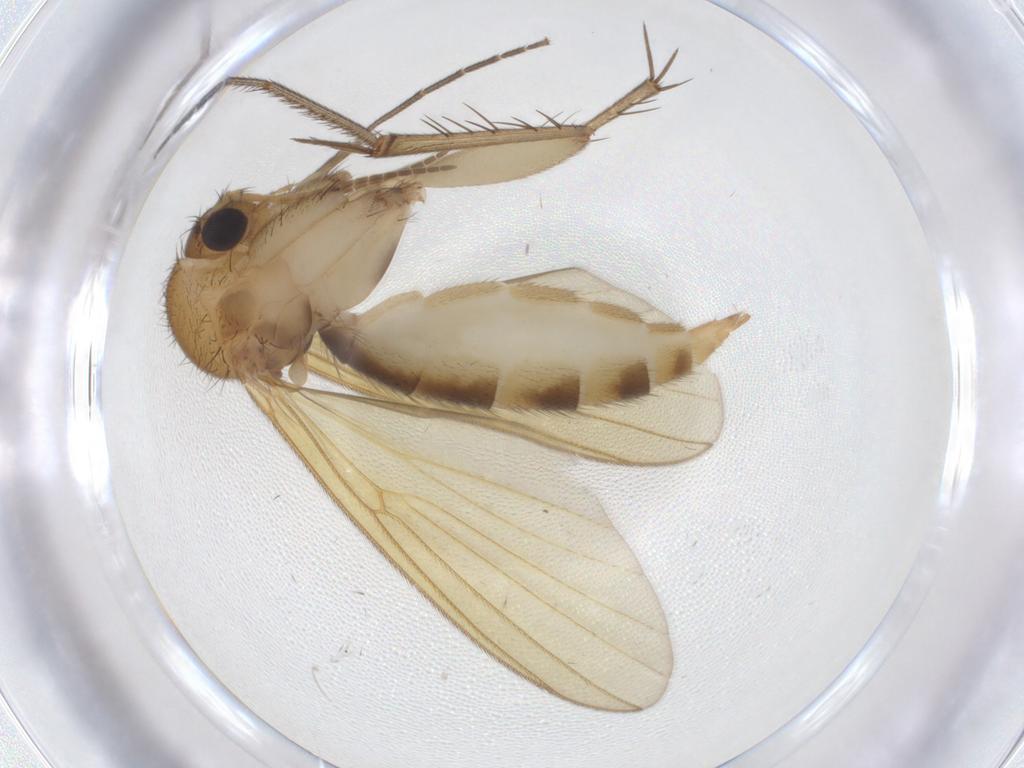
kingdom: Animalia
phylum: Arthropoda
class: Insecta
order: Diptera
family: Mycetophilidae
